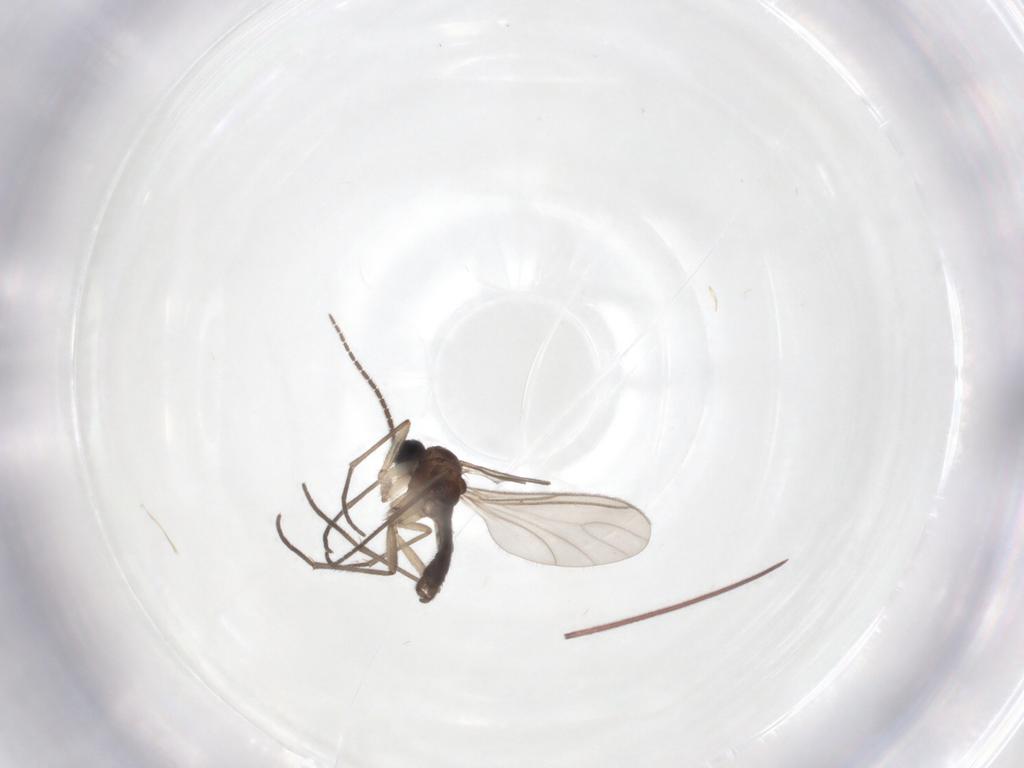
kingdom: Animalia
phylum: Arthropoda
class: Insecta
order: Diptera
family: Sciaridae
